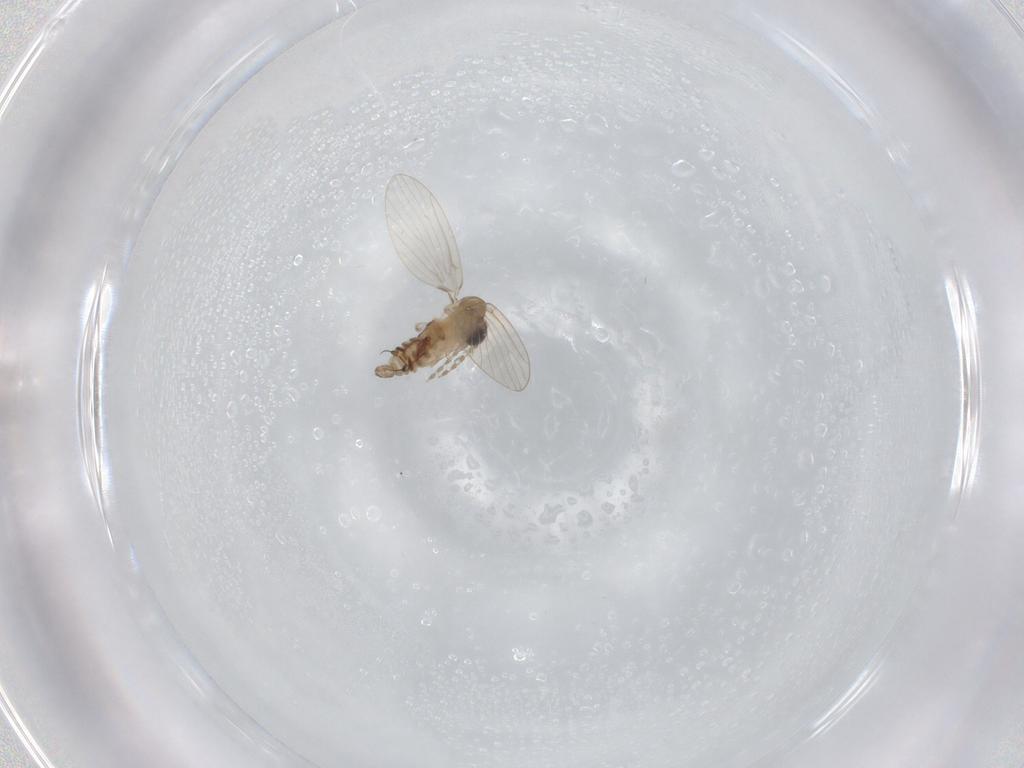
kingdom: Animalia
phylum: Arthropoda
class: Insecta
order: Diptera
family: Psychodidae
